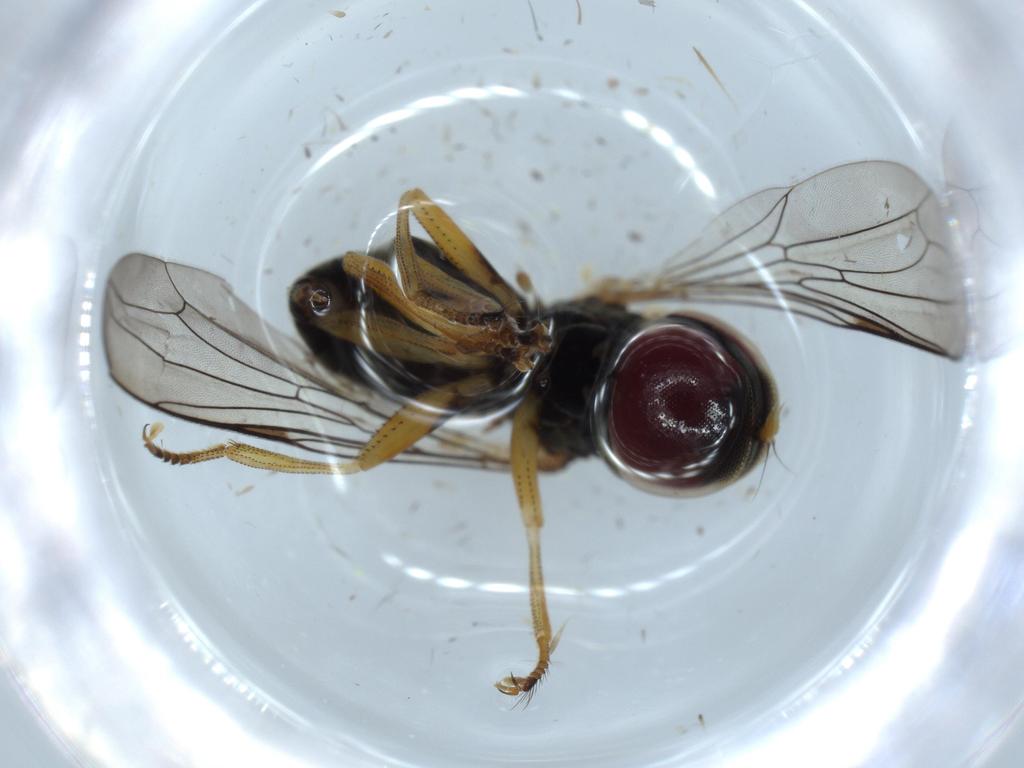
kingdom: Animalia
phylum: Arthropoda
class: Insecta
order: Diptera
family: Sciaridae
